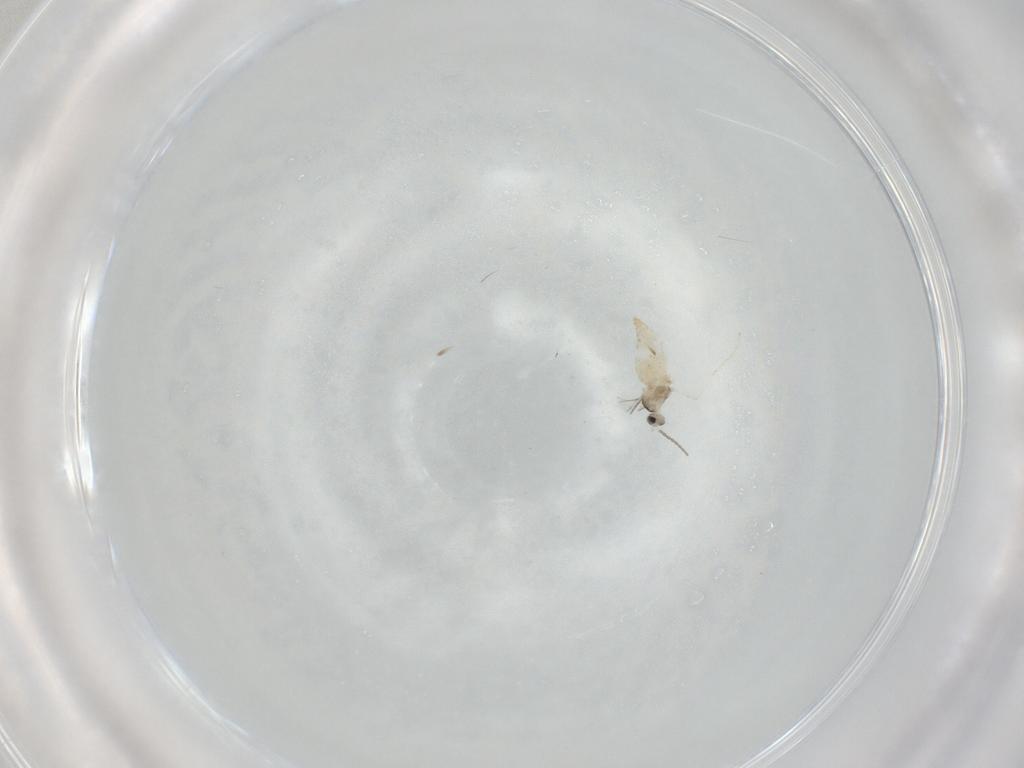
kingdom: Animalia
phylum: Arthropoda
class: Insecta
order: Diptera
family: Cecidomyiidae
